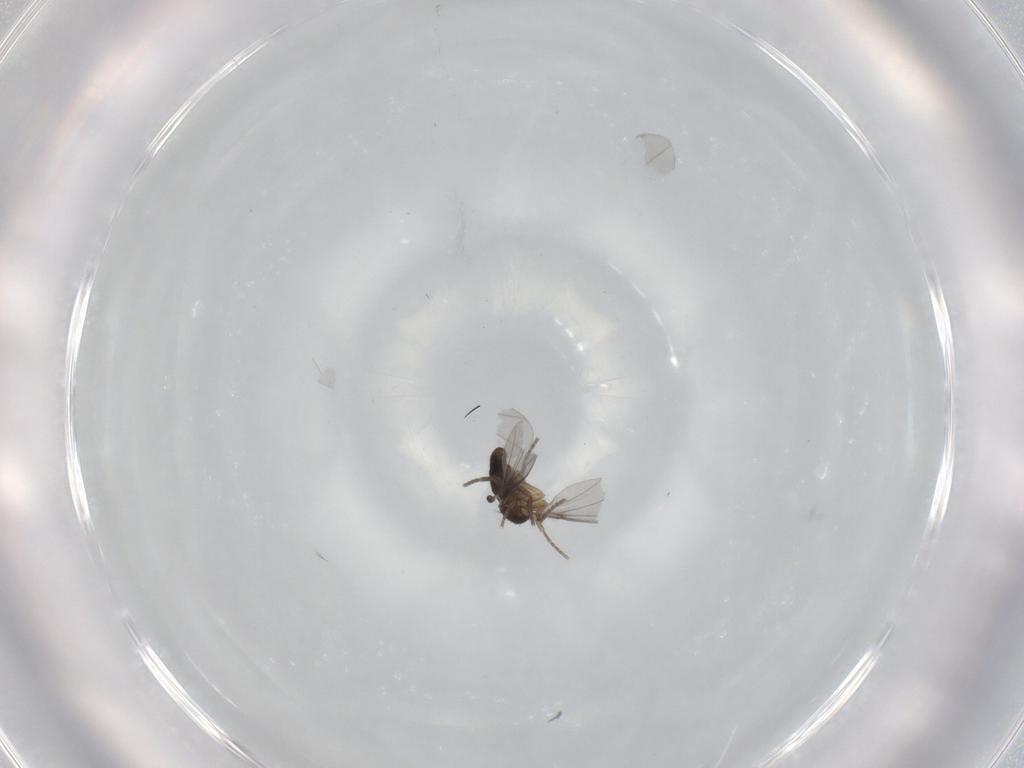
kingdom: Animalia
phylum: Arthropoda
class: Insecta
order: Diptera
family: Phoridae
